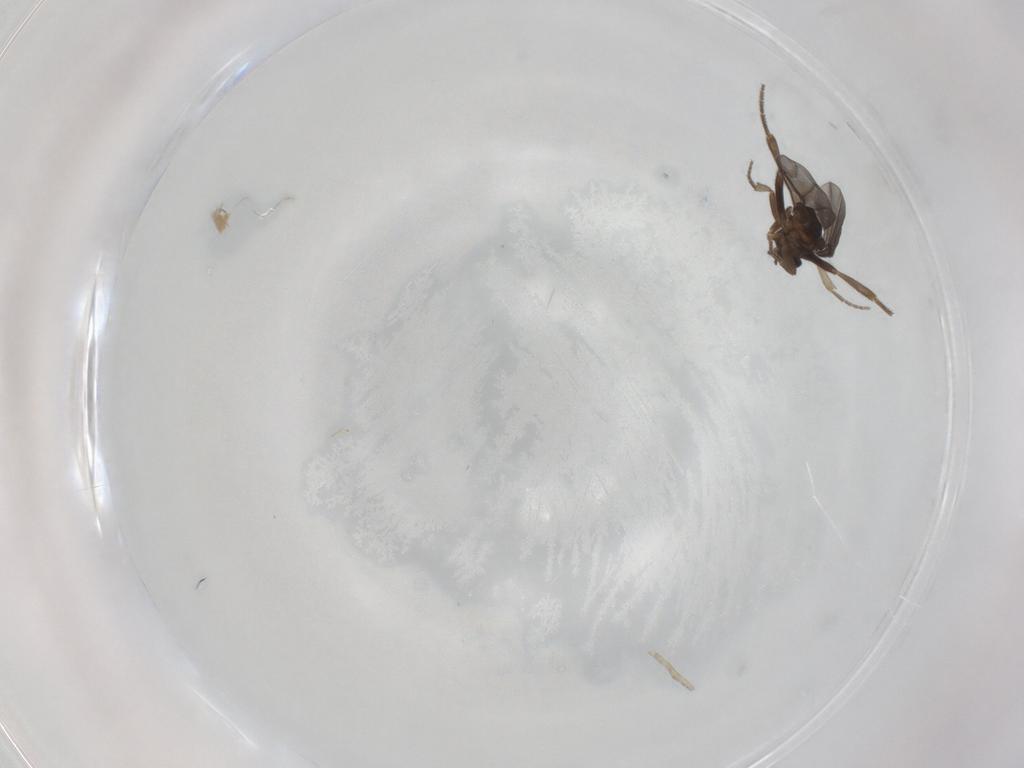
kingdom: Animalia
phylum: Arthropoda
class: Insecta
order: Diptera
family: Phoridae
